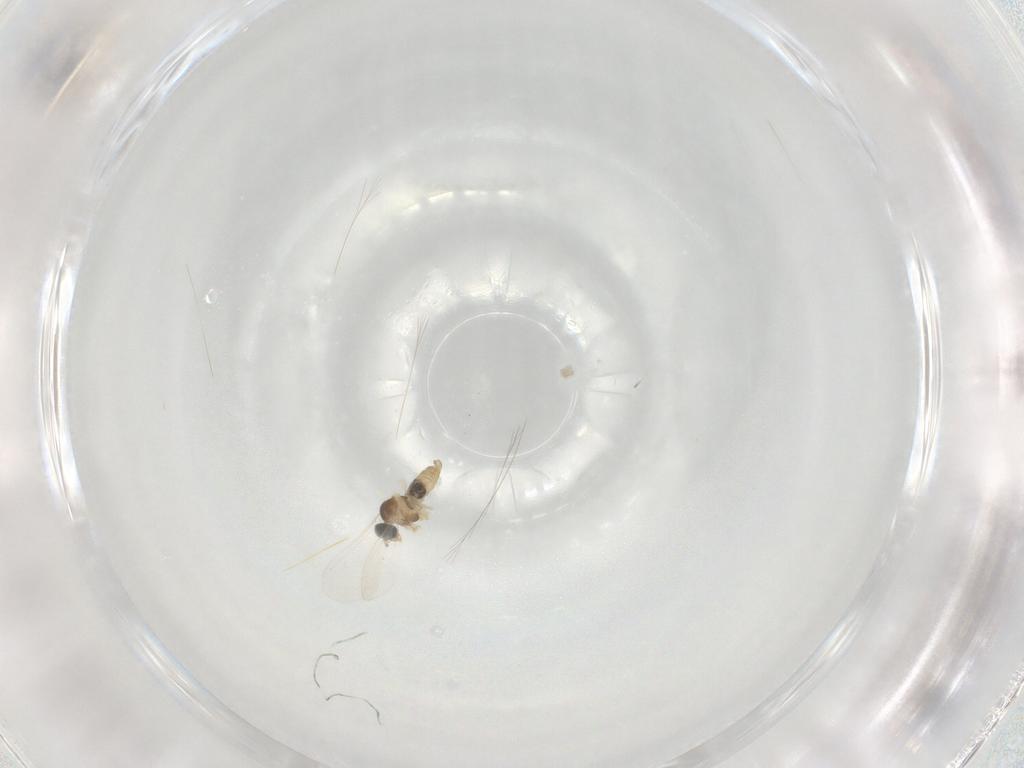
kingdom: Animalia
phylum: Arthropoda
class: Insecta
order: Diptera
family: Cecidomyiidae
